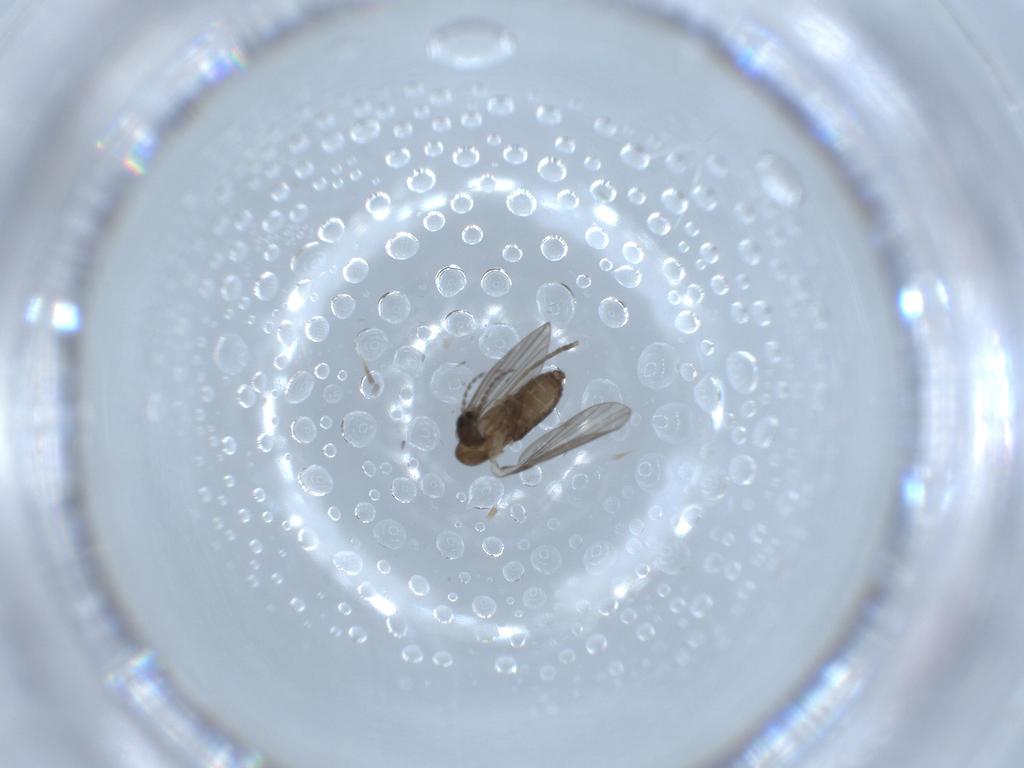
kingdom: Animalia
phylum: Arthropoda
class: Insecta
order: Diptera
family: Psychodidae
